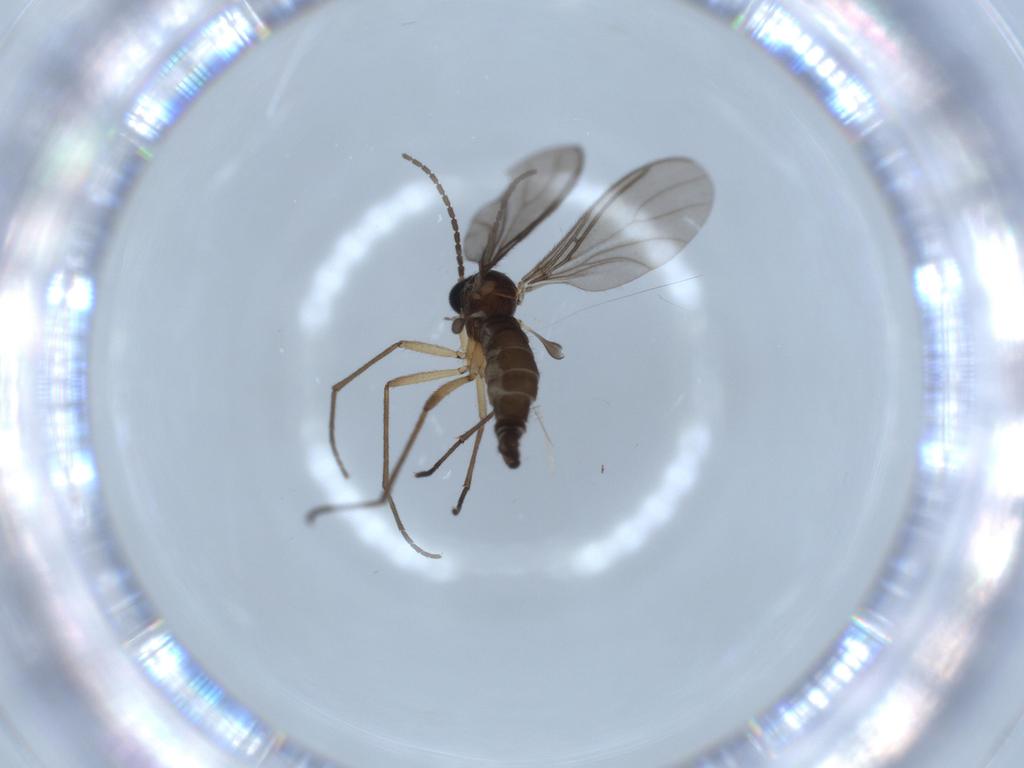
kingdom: Animalia
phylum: Arthropoda
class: Insecta
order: Diptera
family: Sciaridae
